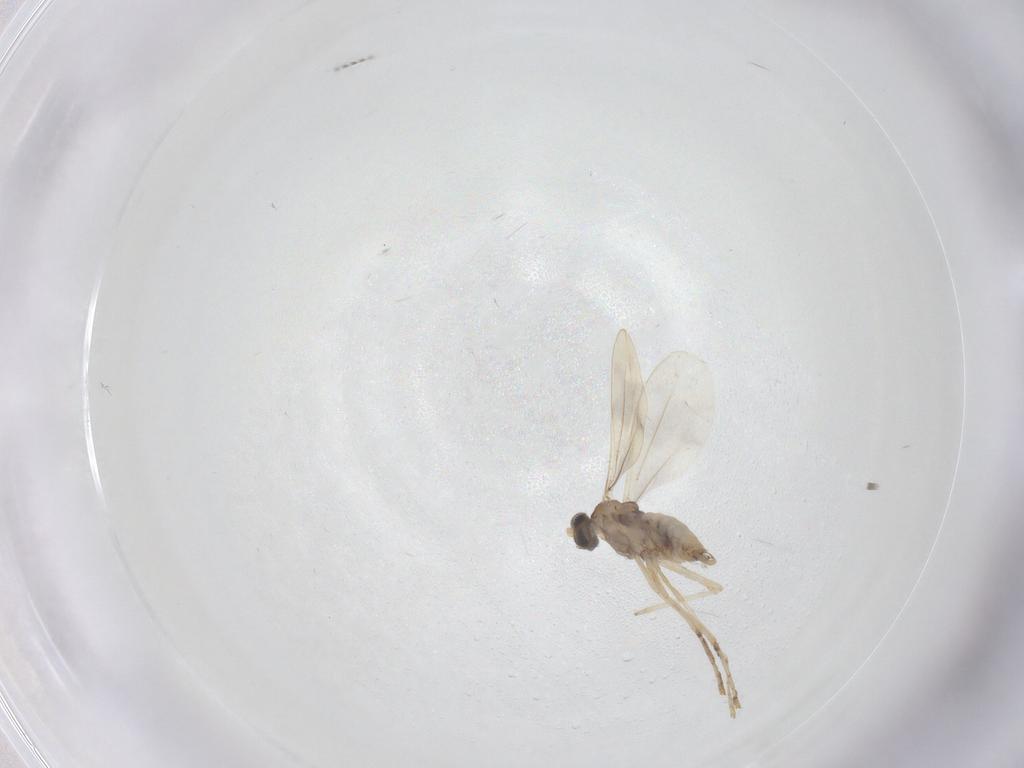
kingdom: Animalia
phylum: Arthropoda
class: Insecta
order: Diptera
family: Cecidomyiidae
